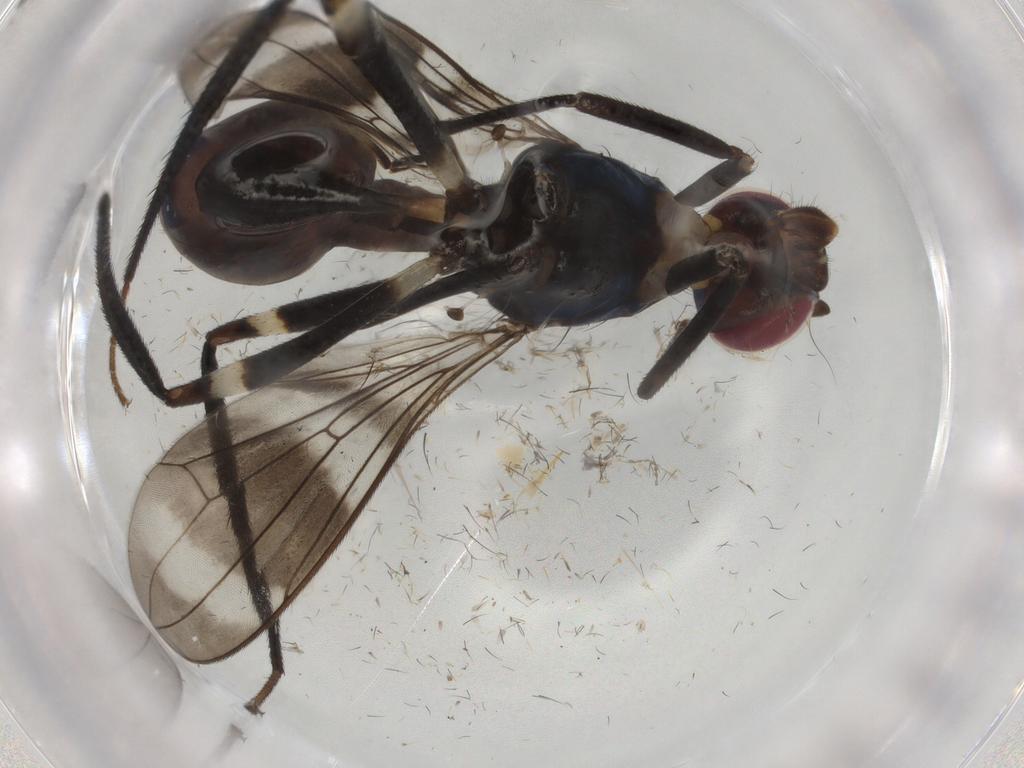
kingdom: Animalia
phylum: Arthropoda
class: Insecta
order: Diptera
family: Micropezidae
